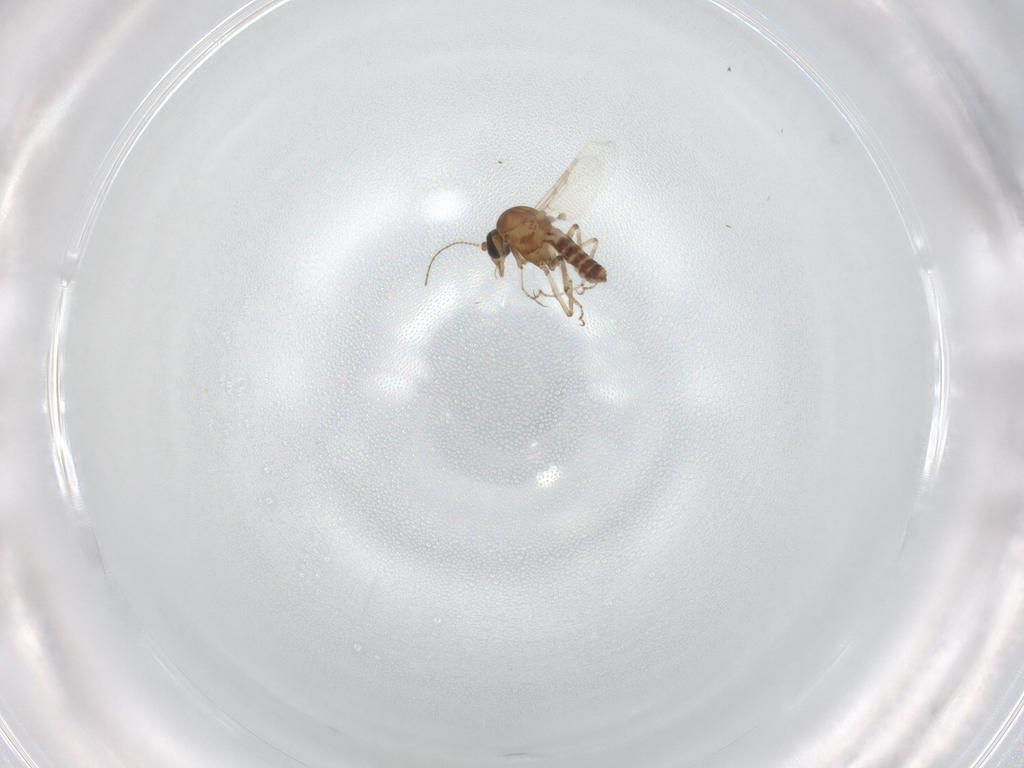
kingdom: Animalia
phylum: Arthropoda
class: Insecta
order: Diptera
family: Ceratopogonidae
